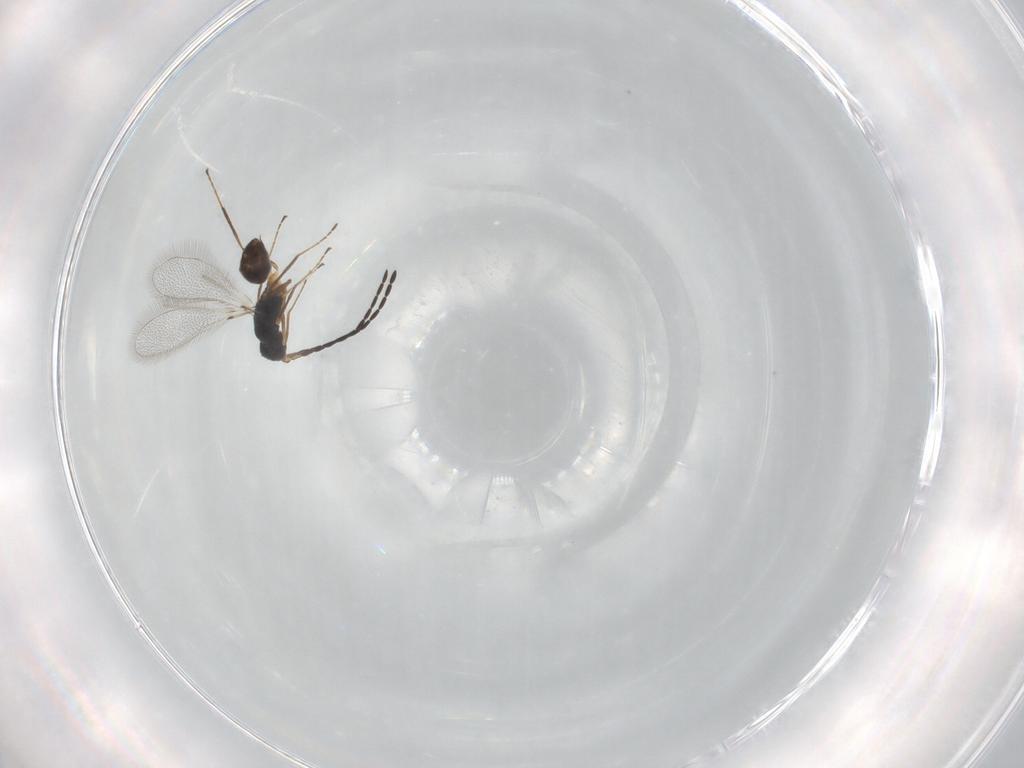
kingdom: Animalia
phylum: Arthropoda
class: Insecta
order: Hymenoptera
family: Mymaridae
